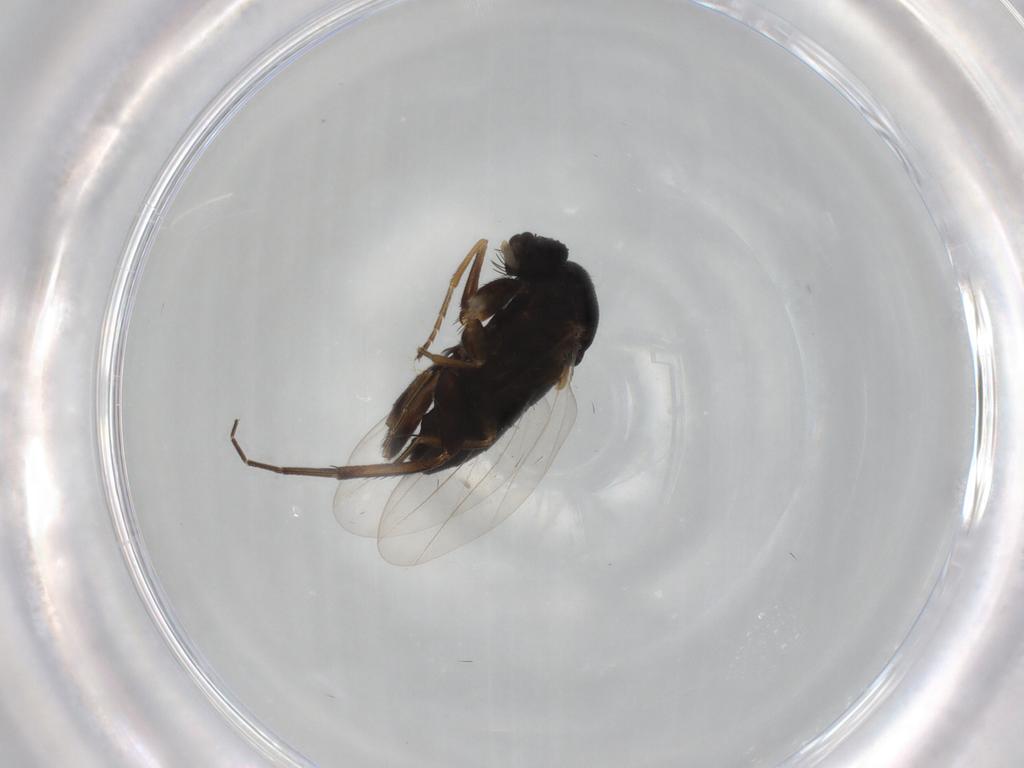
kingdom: Animalia
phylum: Arthropoda
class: Insecta
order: Diptera
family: Phoridae
